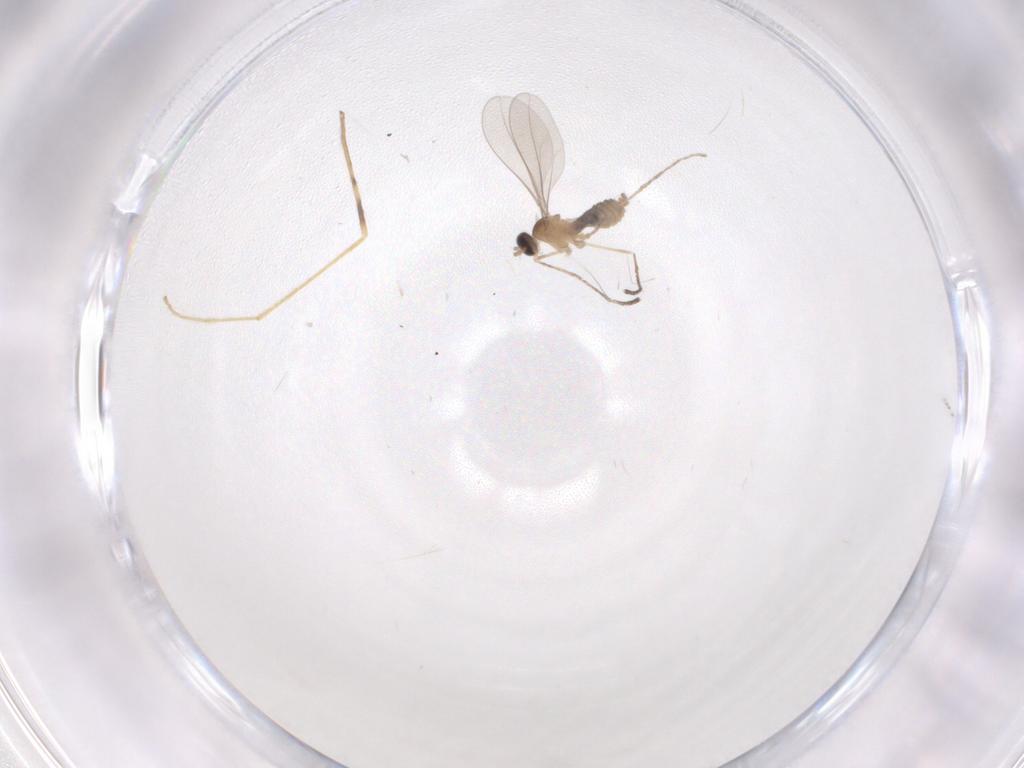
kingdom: Animalia
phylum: Arthropoda
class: Insecta
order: Diptera
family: Limoniidae
